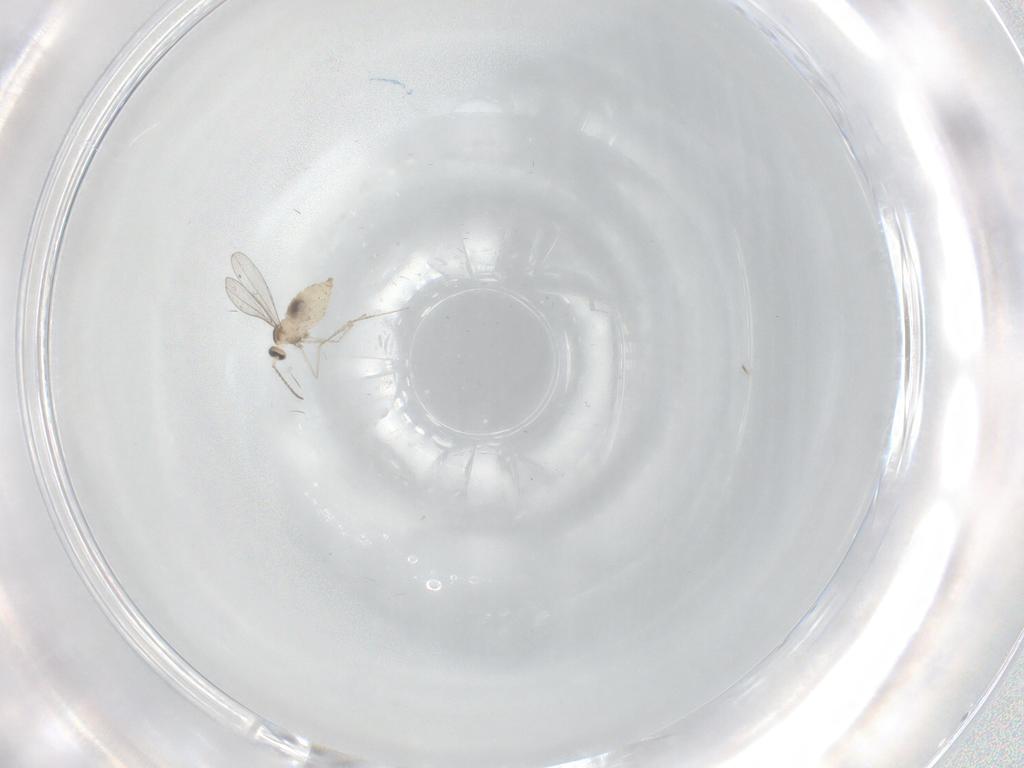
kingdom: Animalia
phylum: Arthropoda
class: Insecta
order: Diptera
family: Cecidomyiidae
